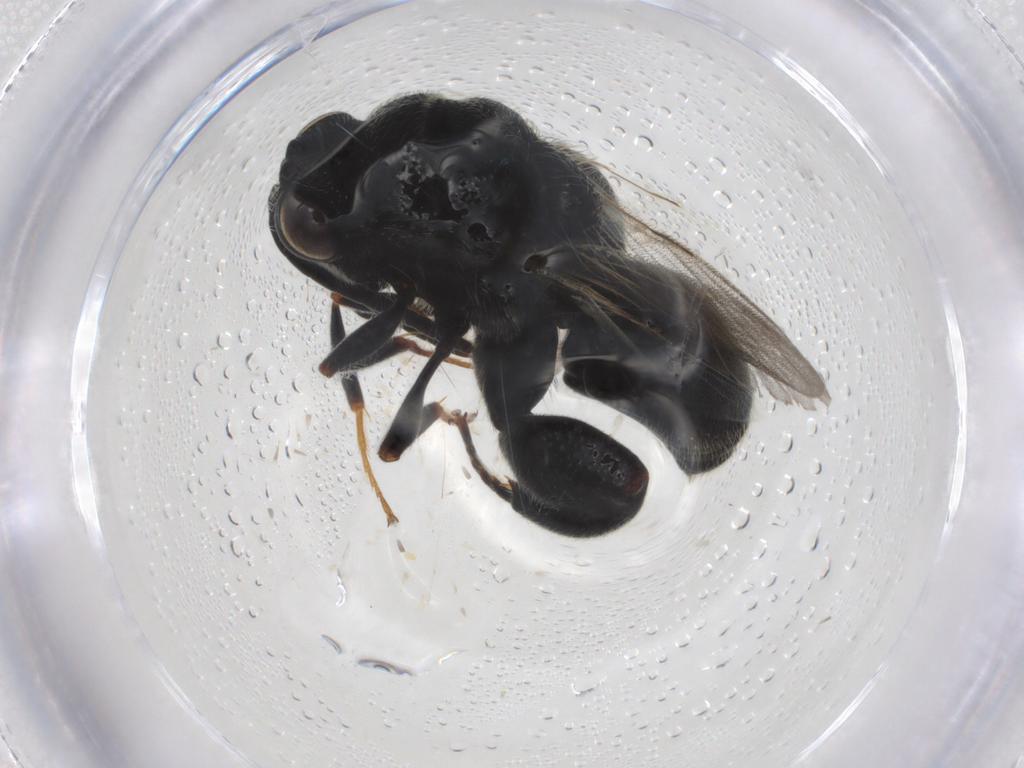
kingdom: Animalia
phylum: Arthropoda
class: Insecta
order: Hymenoptera
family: Chalcididae
